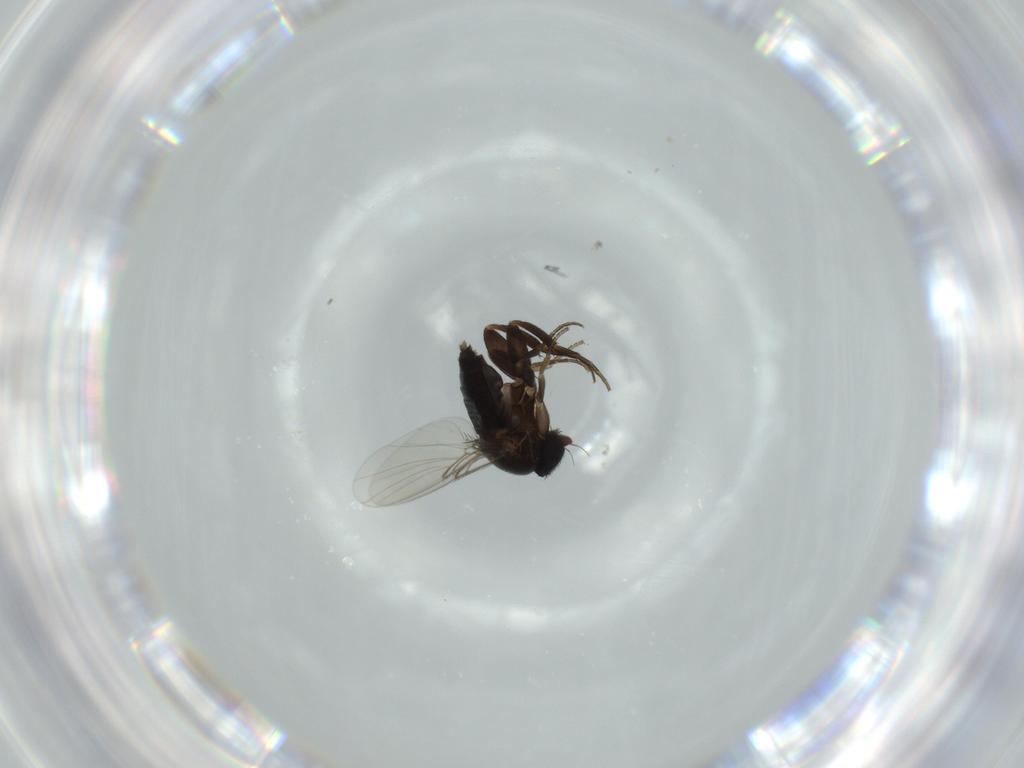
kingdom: Animalia
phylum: Arthropoda
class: Insecta
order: Diptera
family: Phoridae
